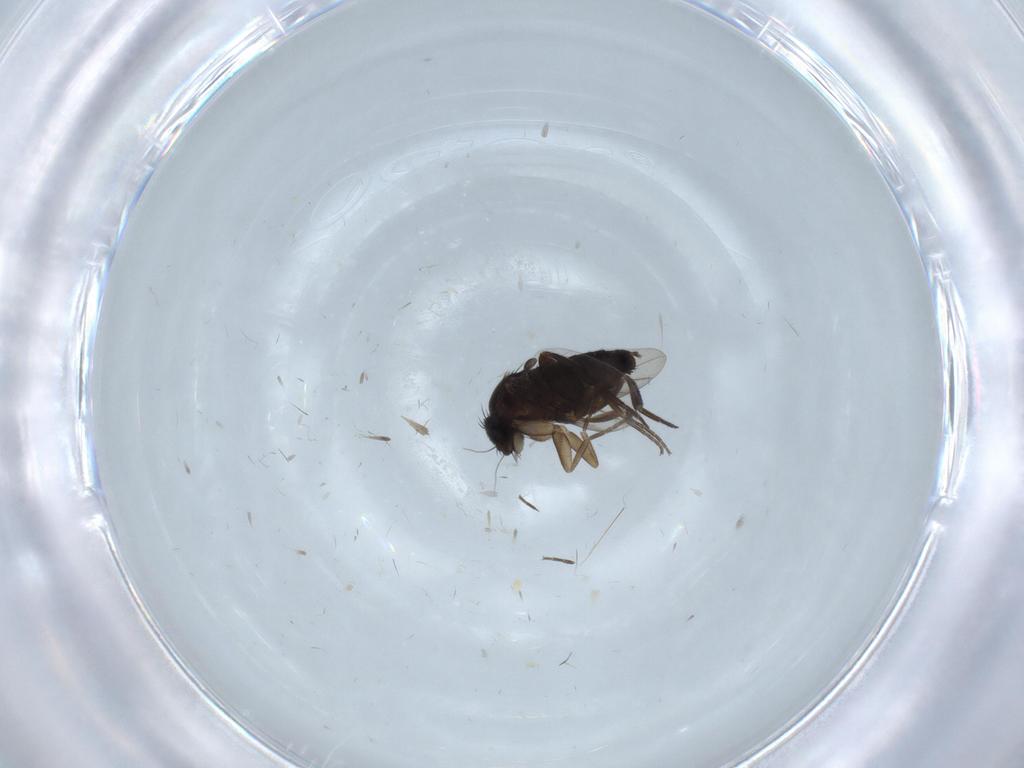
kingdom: Animalia
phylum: Arthropoda
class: Insecta
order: Diptera
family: Phoridae
